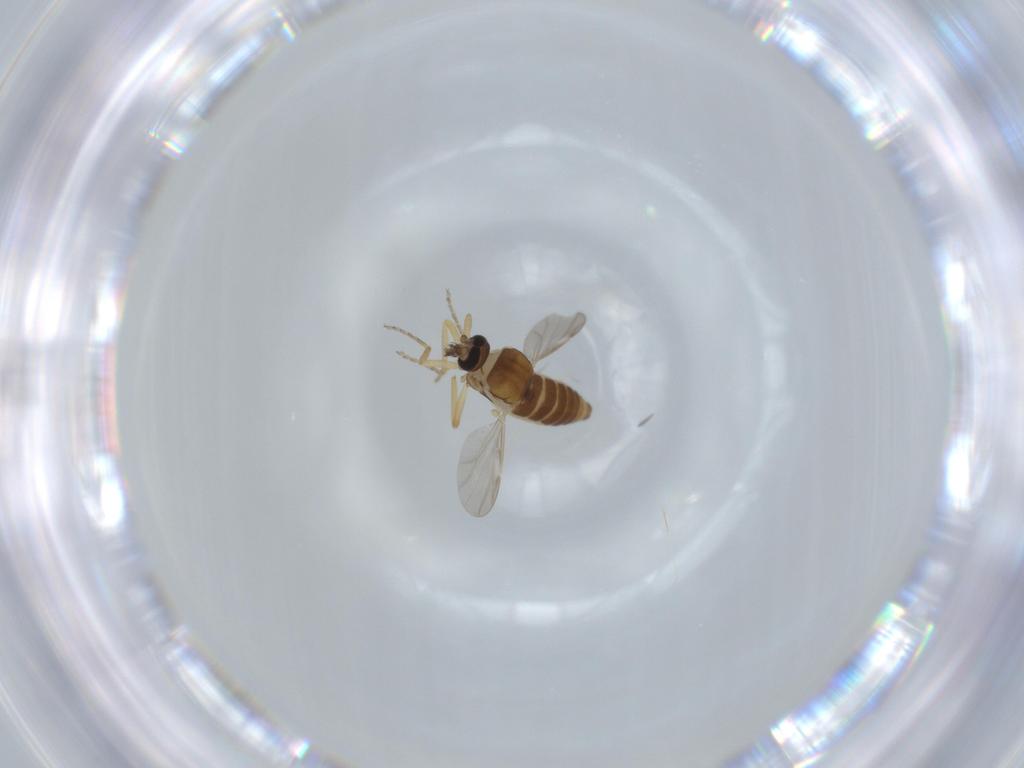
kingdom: Animalia
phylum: Arthropoda
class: Insecta
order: Diptera
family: Ceratopogonidae
